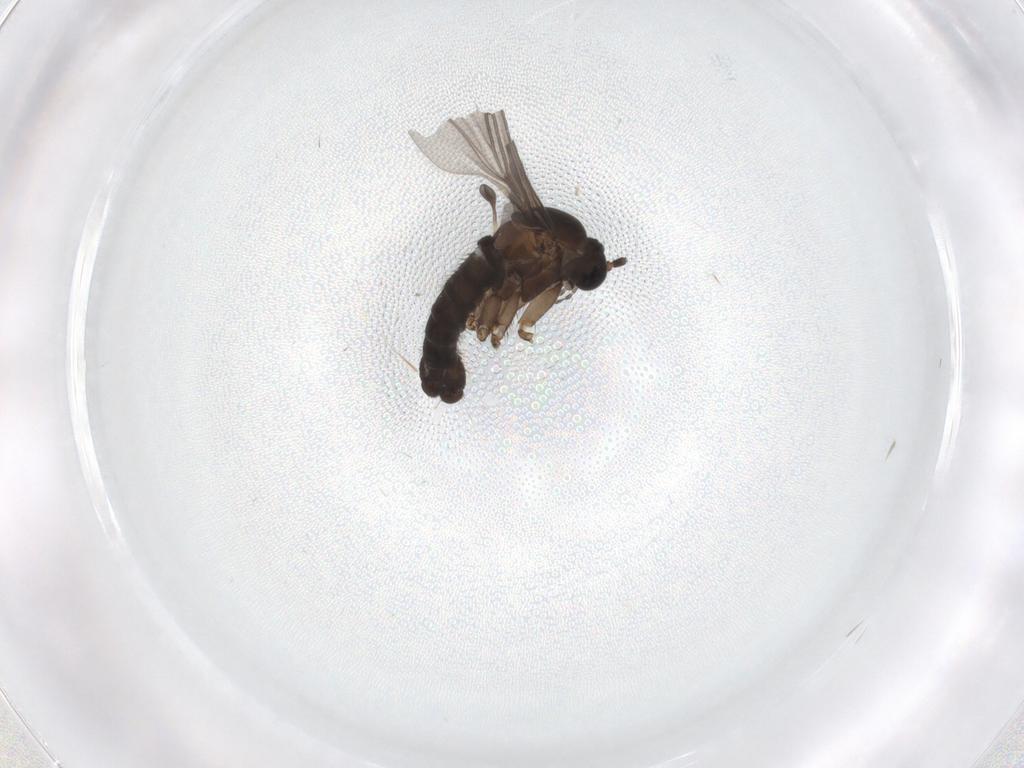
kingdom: Animalia
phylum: Arthropoda
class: Insecta
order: Diptera
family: Sciaridae
